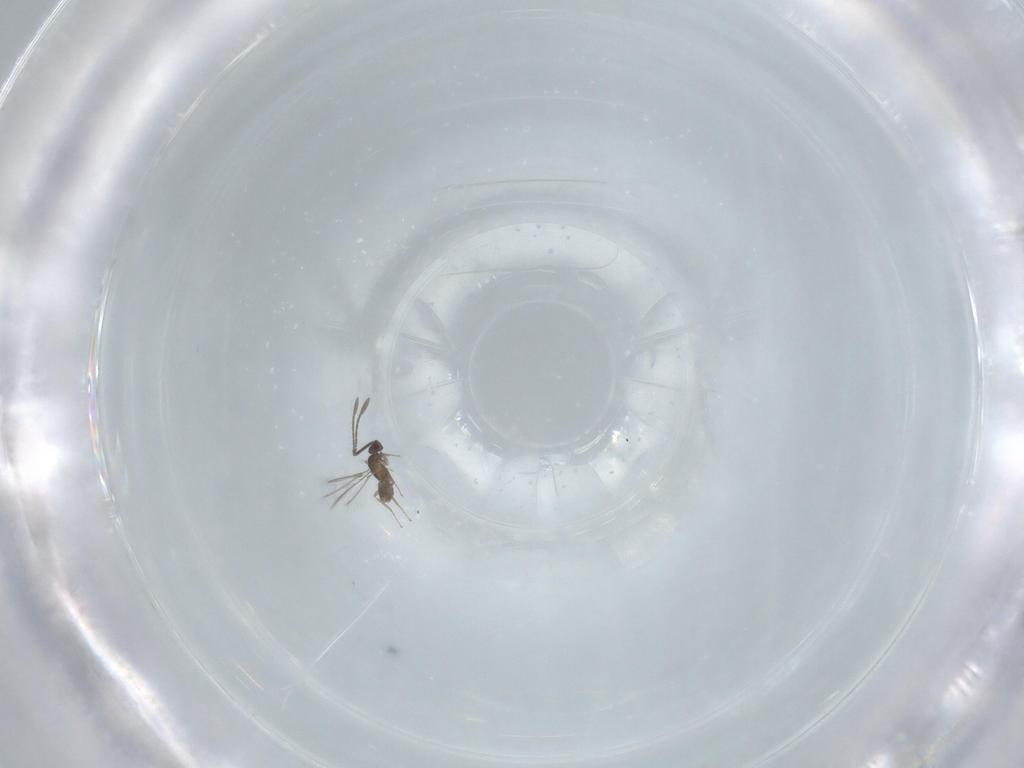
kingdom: Animalia
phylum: Arthropoda
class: Insecta
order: Hymenoptera
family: Mymaridae
